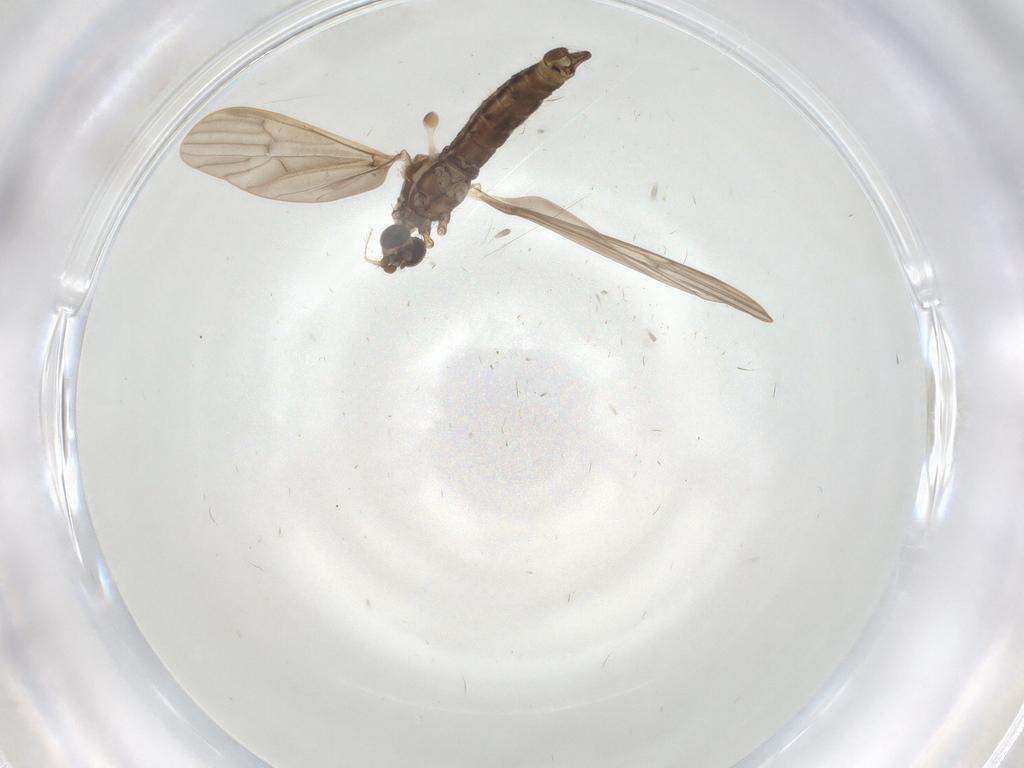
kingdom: Animalia
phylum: Arthropoda
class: Insecta
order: Diptera
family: Limoniidae
